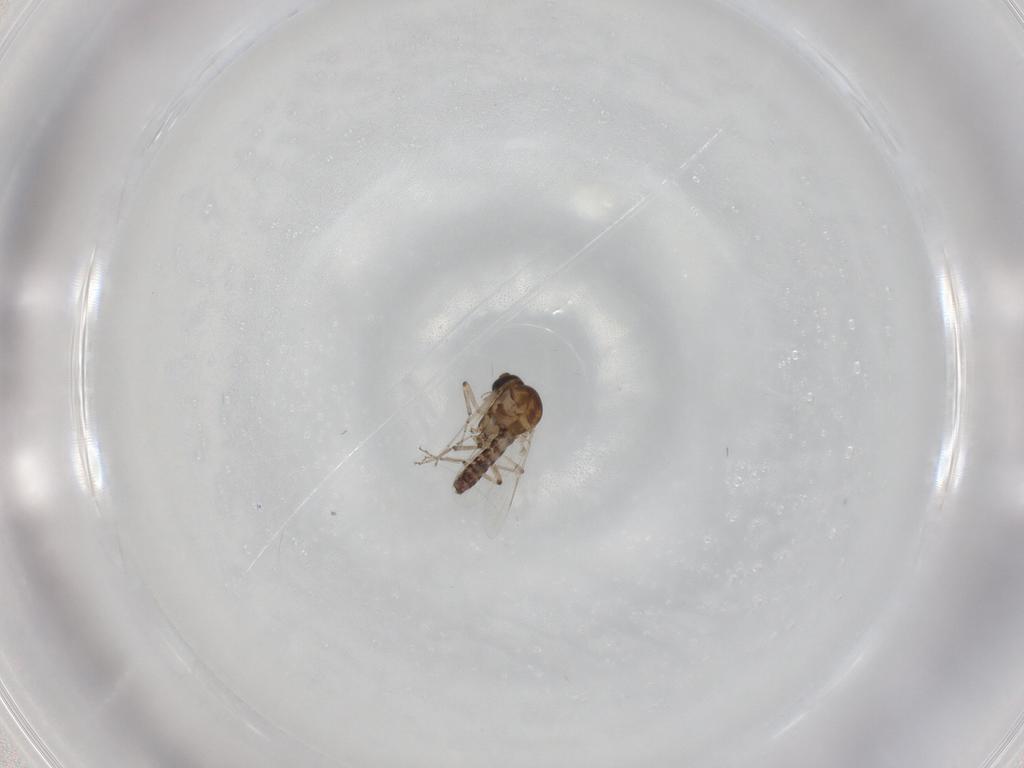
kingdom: Animalia
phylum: Arthropoda
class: Insecta
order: Diptera
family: Ceratopogonidae
